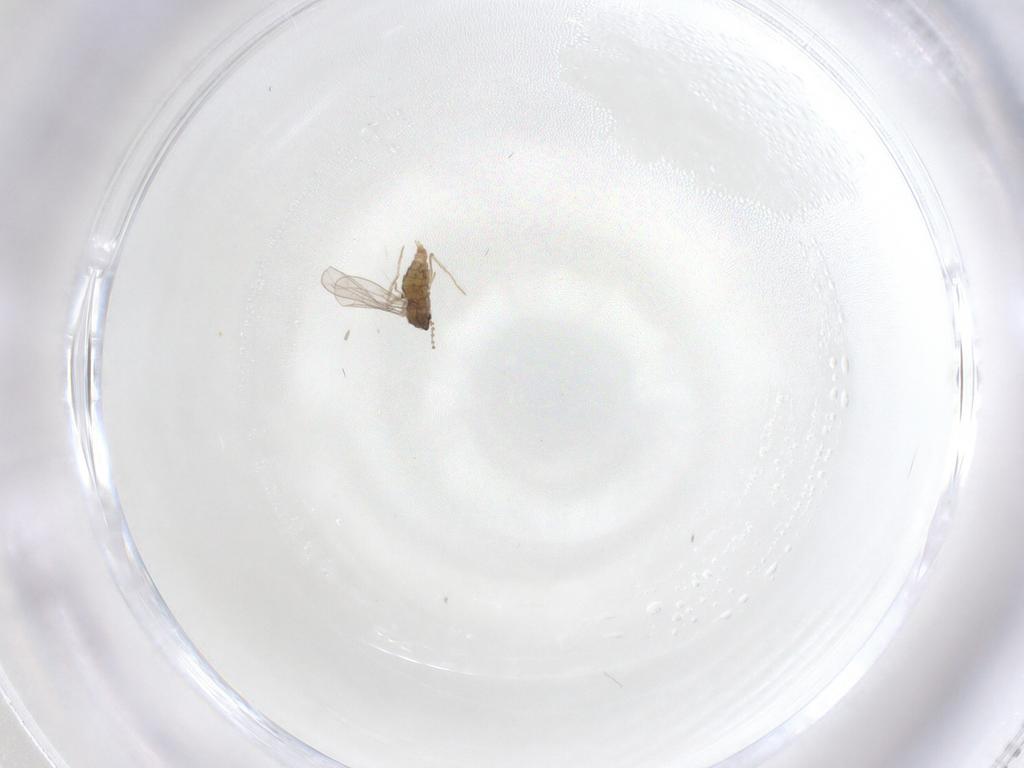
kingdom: Animalia
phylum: Arthropoda
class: Insecta
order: Diptera
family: Cecidomyiidae
